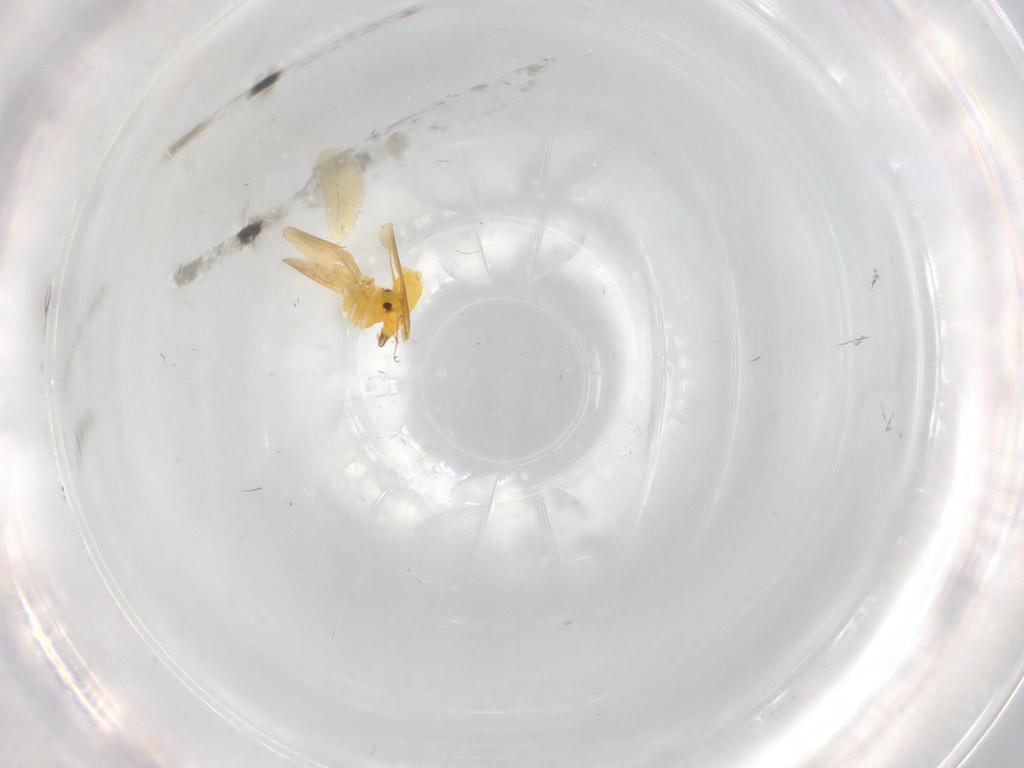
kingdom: Animalia
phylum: Arthropoda
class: Insecta
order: Hemiptera
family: Aleyrodidae
